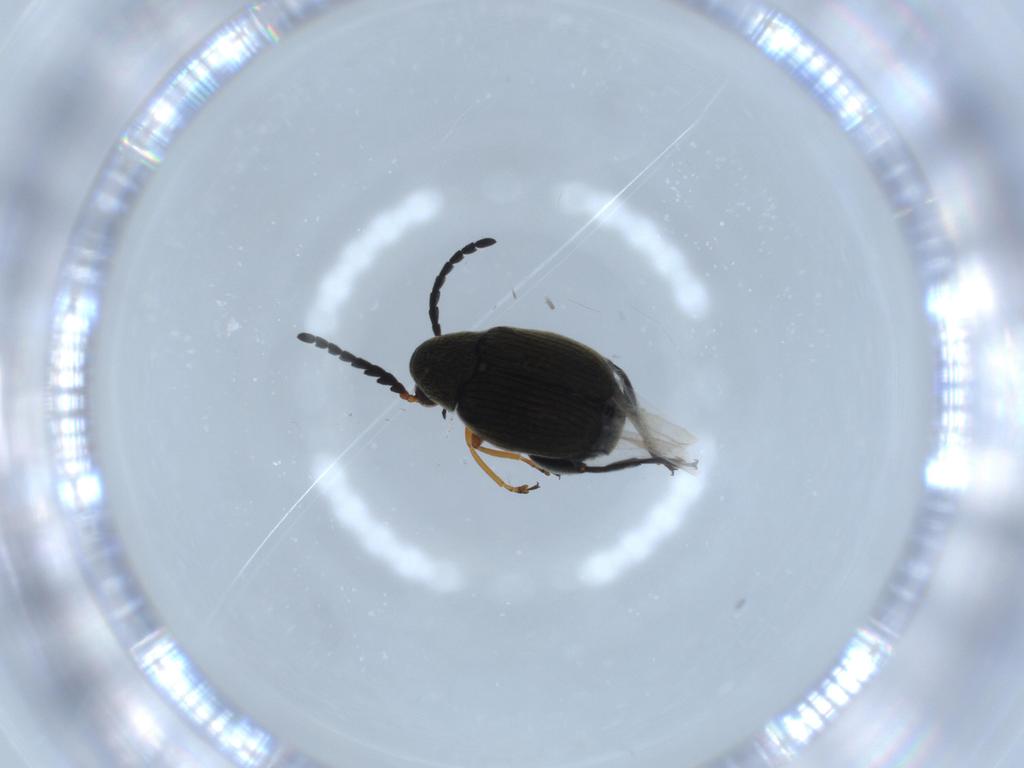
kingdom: Animalia
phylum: Arthropoda
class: Insecta
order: Coleoptera
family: Chrysomelidae
